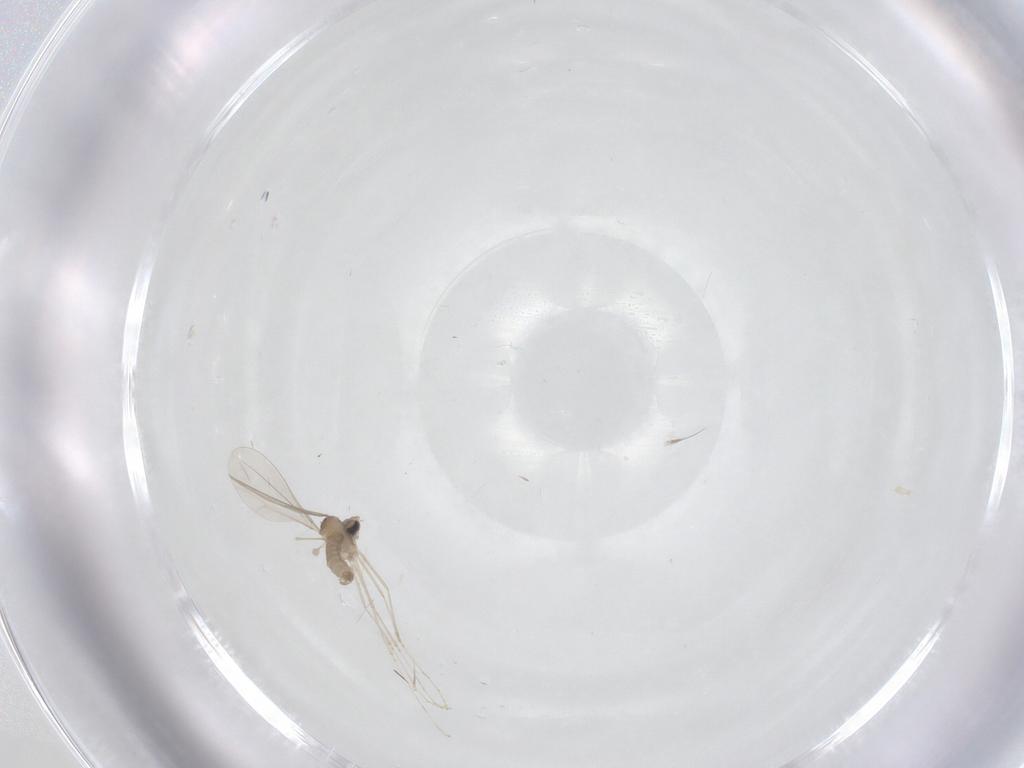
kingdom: Animalia
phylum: Arthropoda
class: Insecta
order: Diptera
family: Cecidomyiidae
